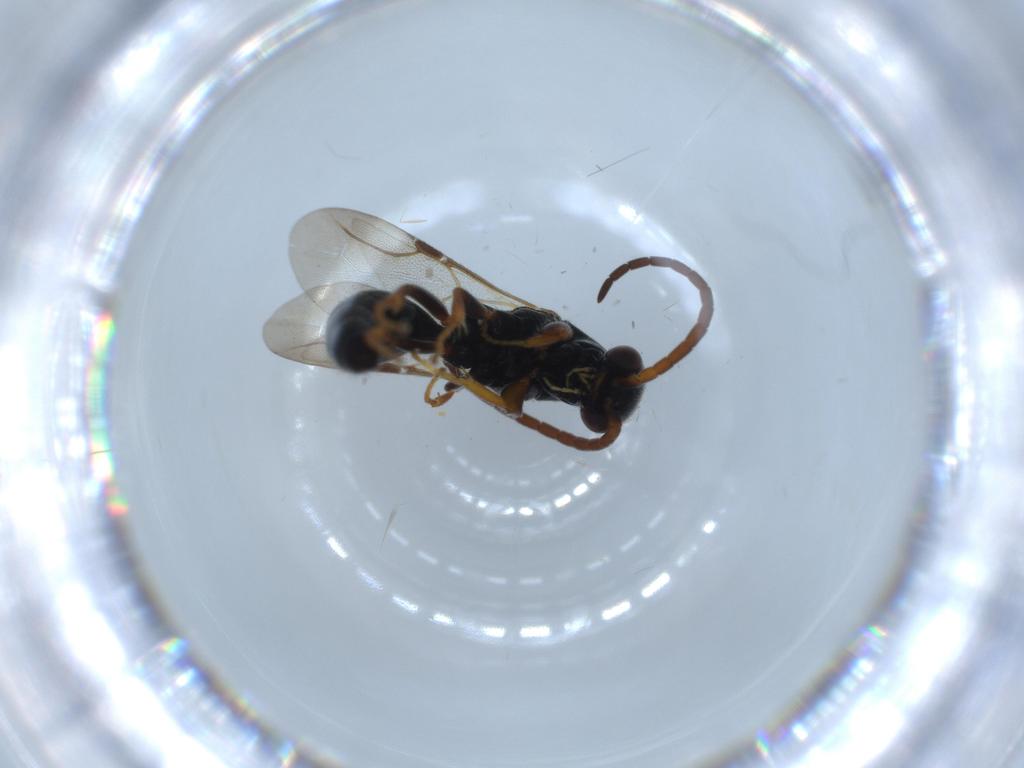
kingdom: Animalia
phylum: Arthropoda
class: Insecta
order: Hymenoptera
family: Bethylidae
